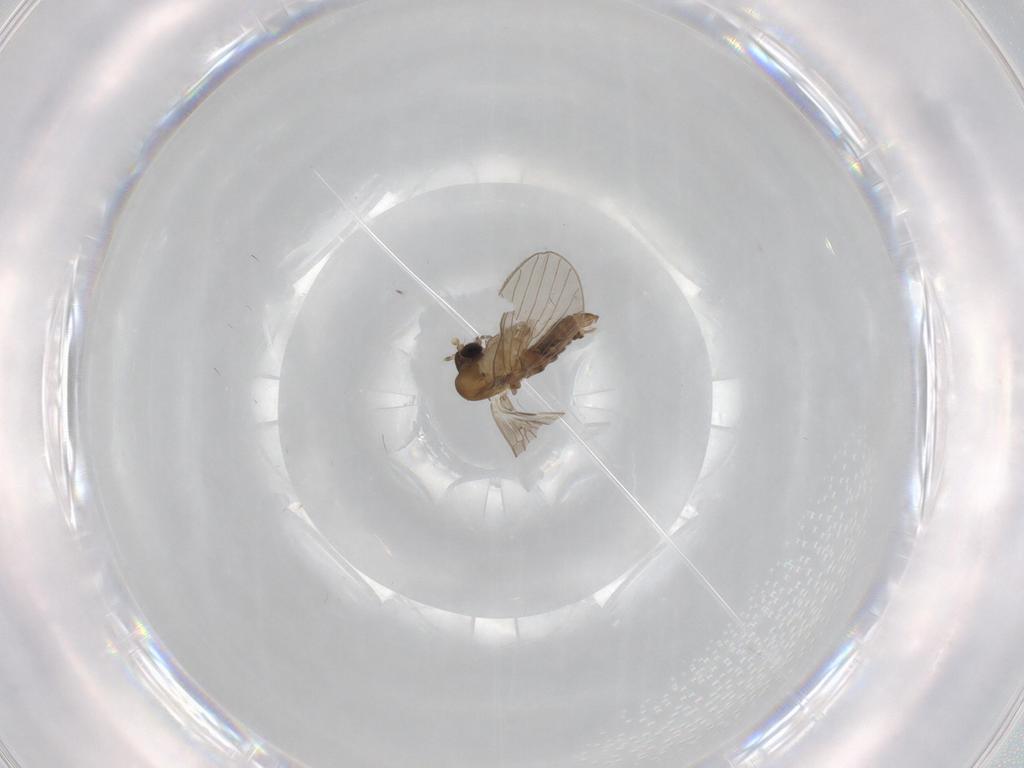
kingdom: Animalia
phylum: Arthropoda
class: Insecta
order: Diptera
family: Phoridae
